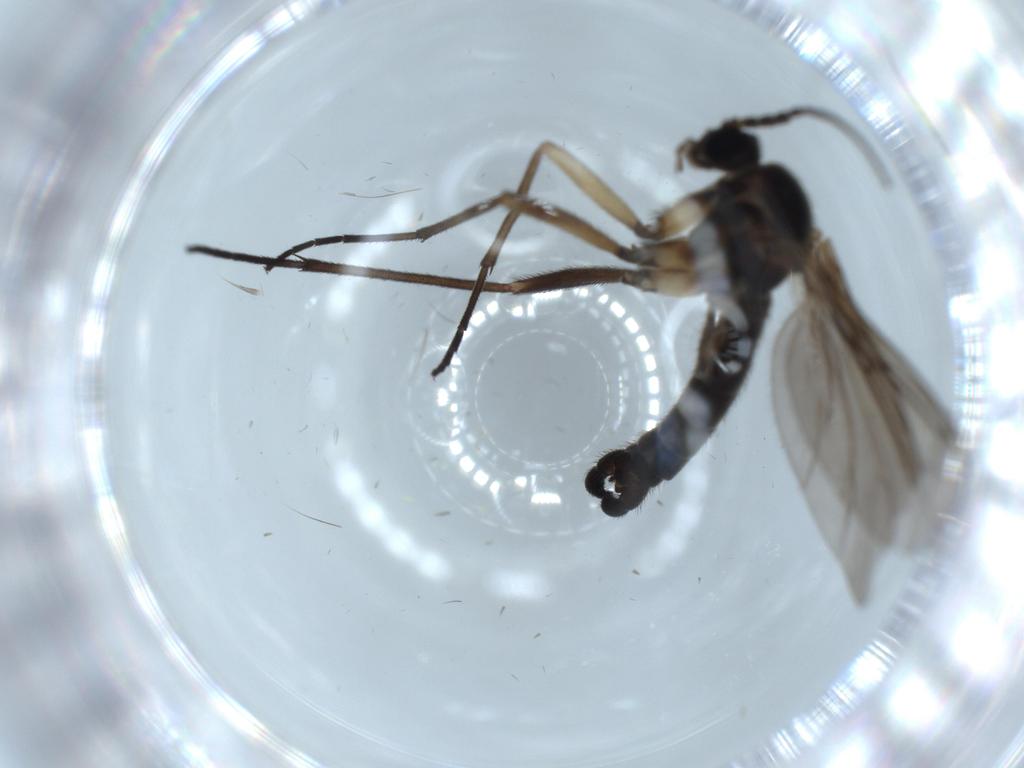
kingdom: Animalia
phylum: Arthropoda
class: Insecta
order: Diptera
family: Sciaridae
